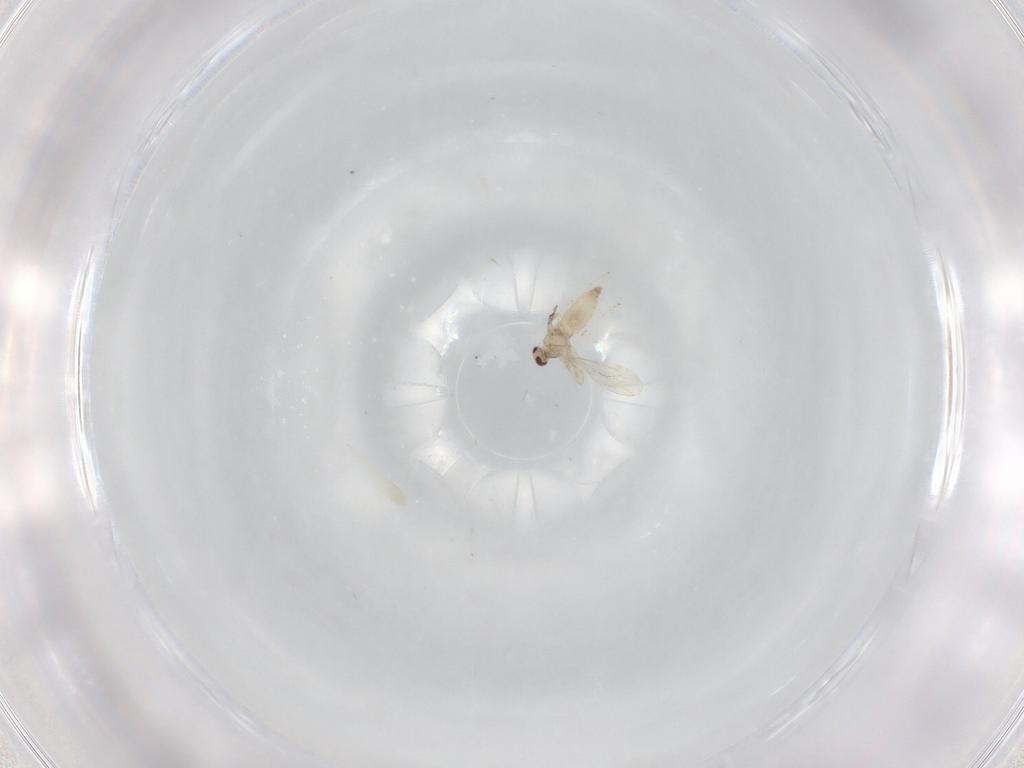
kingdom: Animalia
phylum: Arthropoda
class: Insecta
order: Diptera
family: Cecidomyiidae
